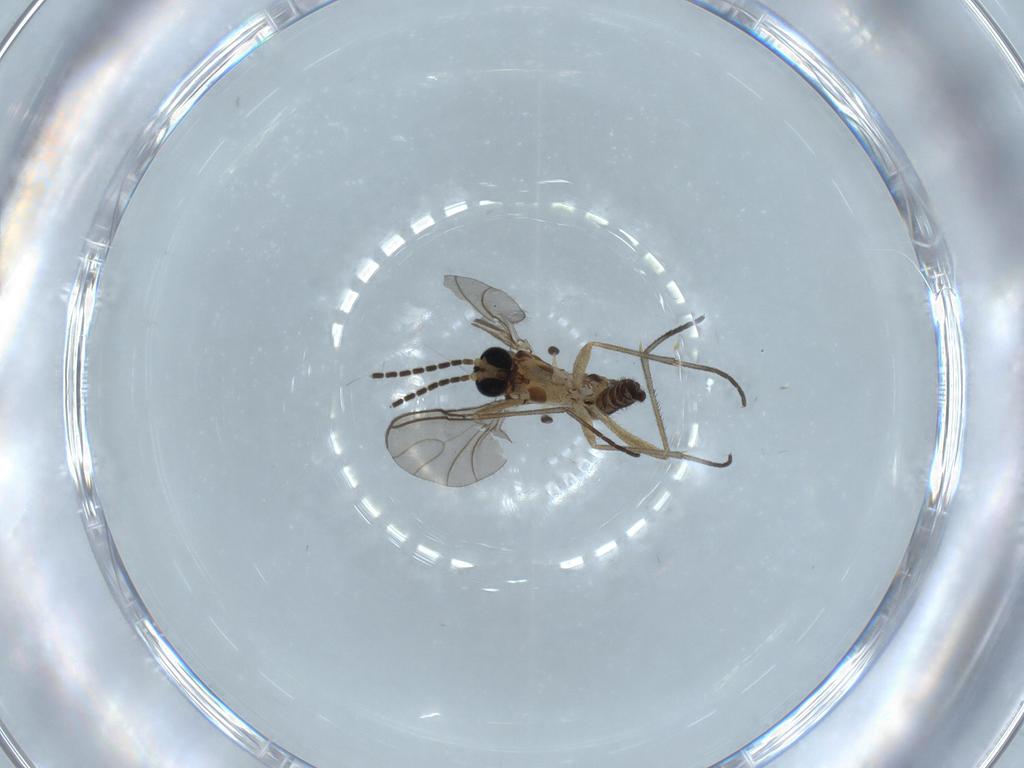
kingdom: Animalia
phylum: Arthropoda
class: Insecta
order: Diptera
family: Sciaridae
